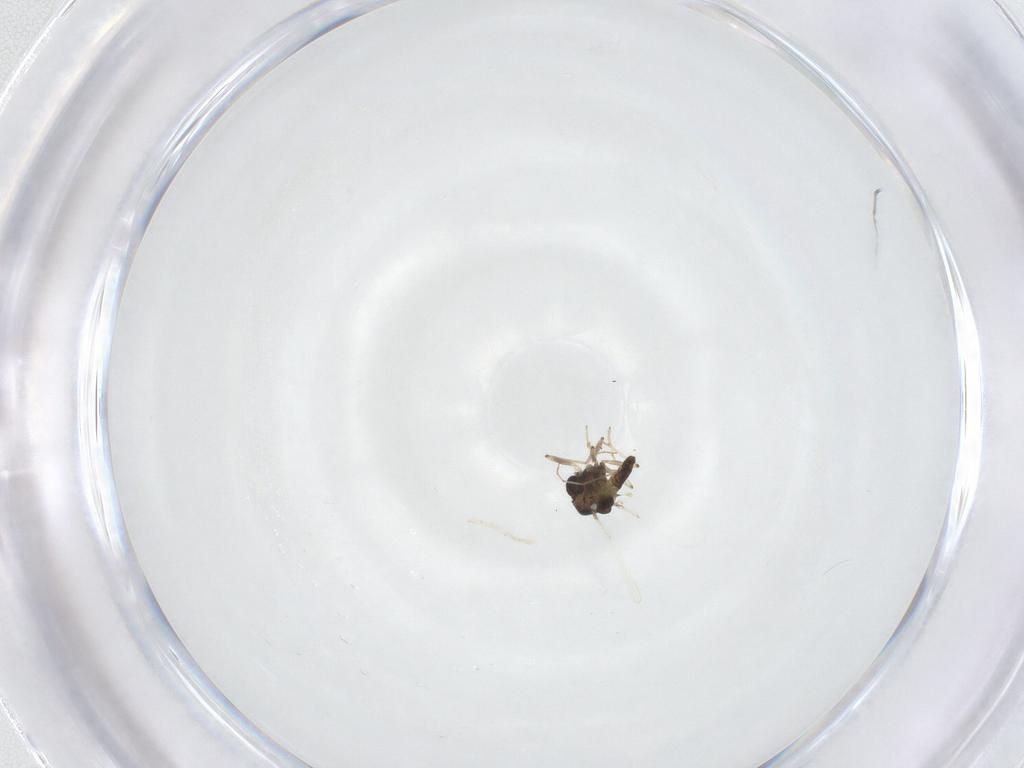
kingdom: Animalia
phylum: Arthropoda
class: Insecta
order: Diptera
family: Chironomidae
